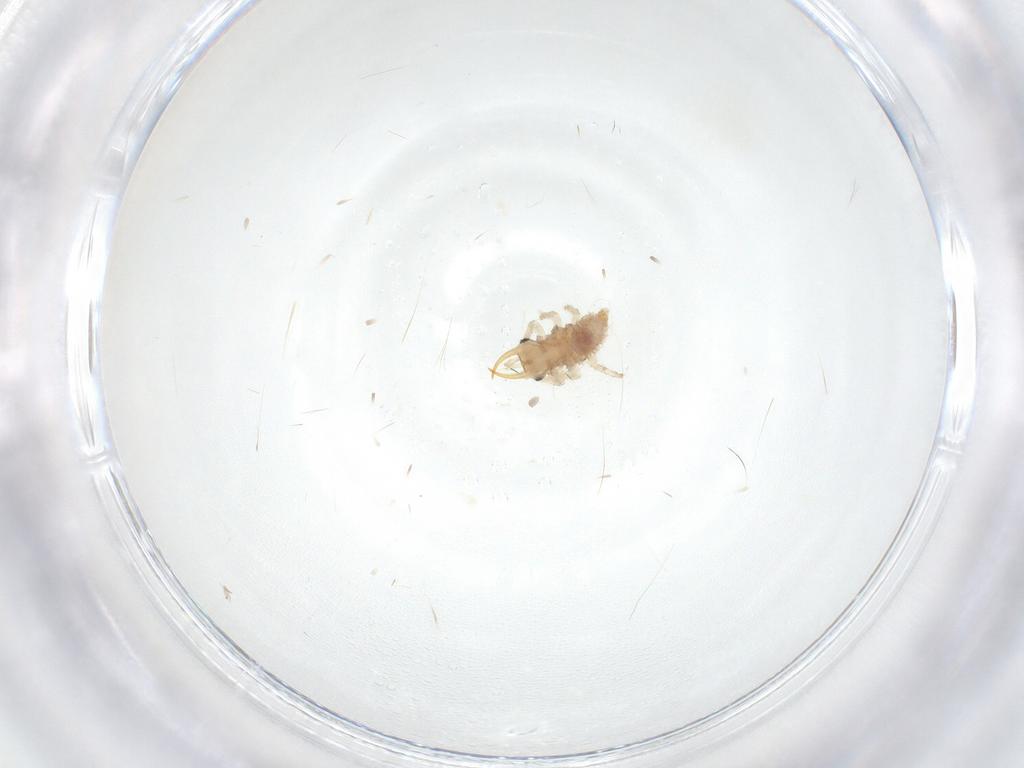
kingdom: Animalia
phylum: Arthropoda
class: Insecta
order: Neuroptera
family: Chrysopidae
